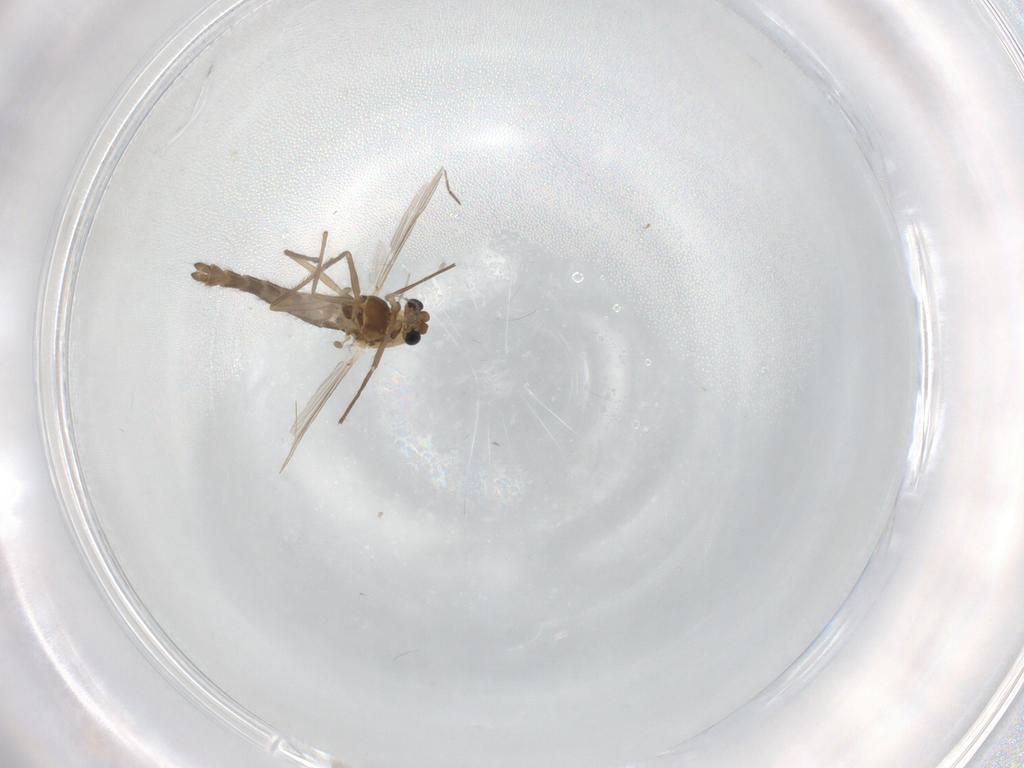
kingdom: Animalia
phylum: Arthropoda
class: Insecta
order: Diptera
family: Chironomidae
